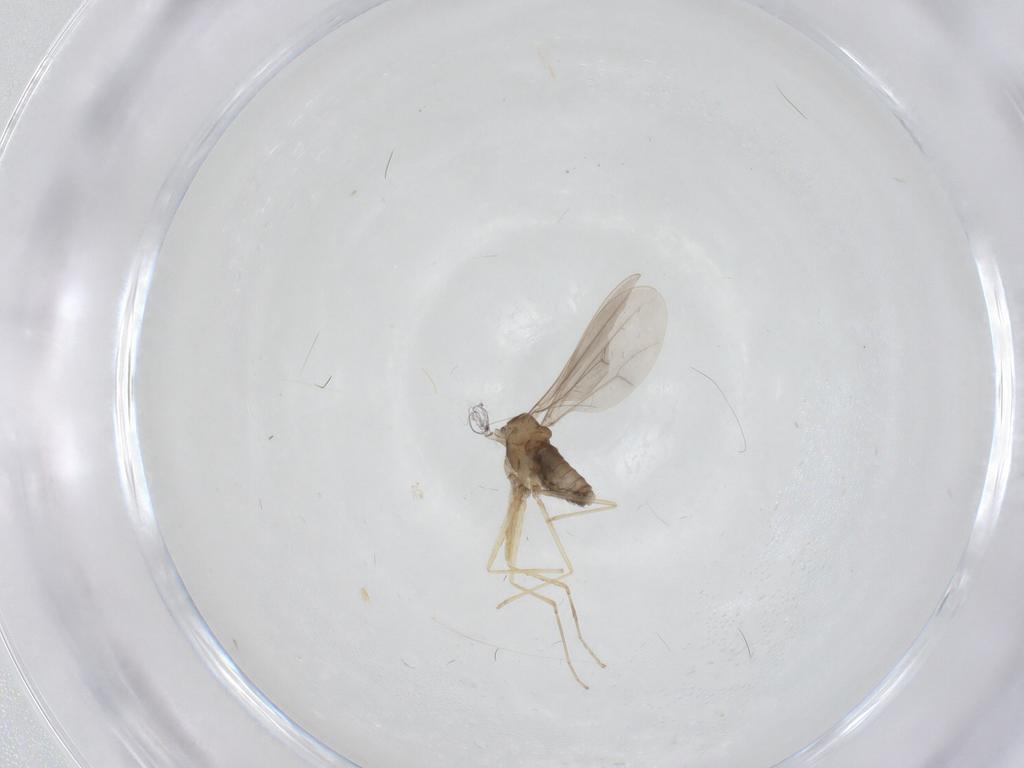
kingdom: Animalia
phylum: Arthropoda
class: Insecta
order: Diptera
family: Cecidomyiidae
